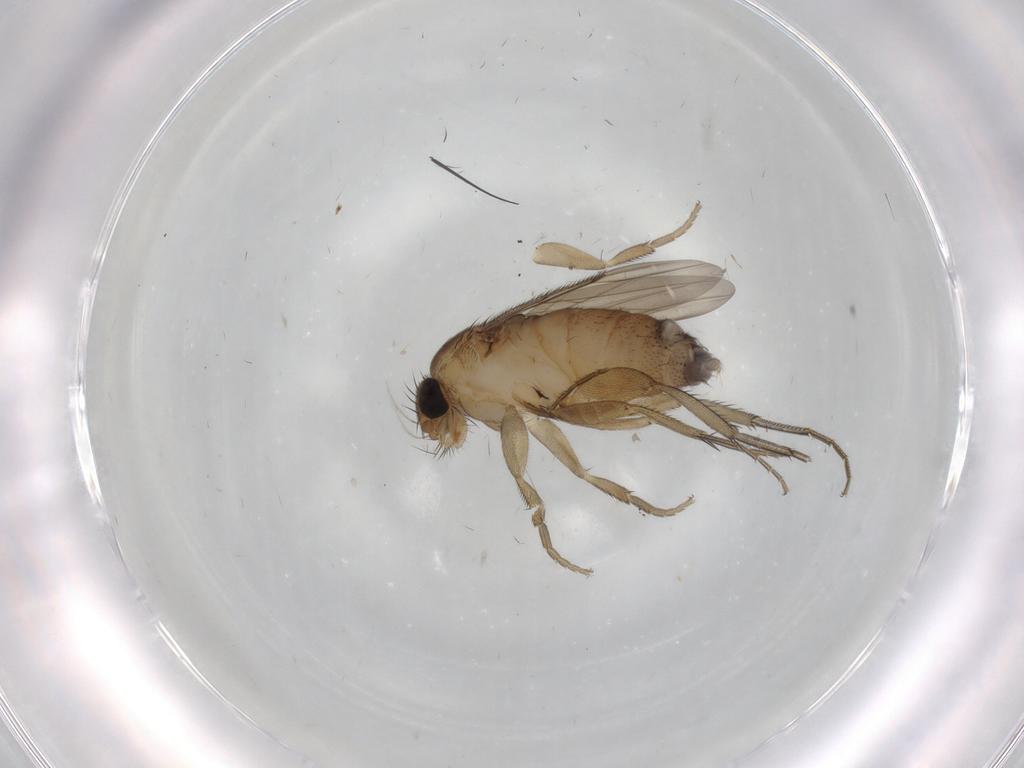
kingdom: Animalia
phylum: Arthropoda
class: Insecta
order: Diptera
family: Phoridae
